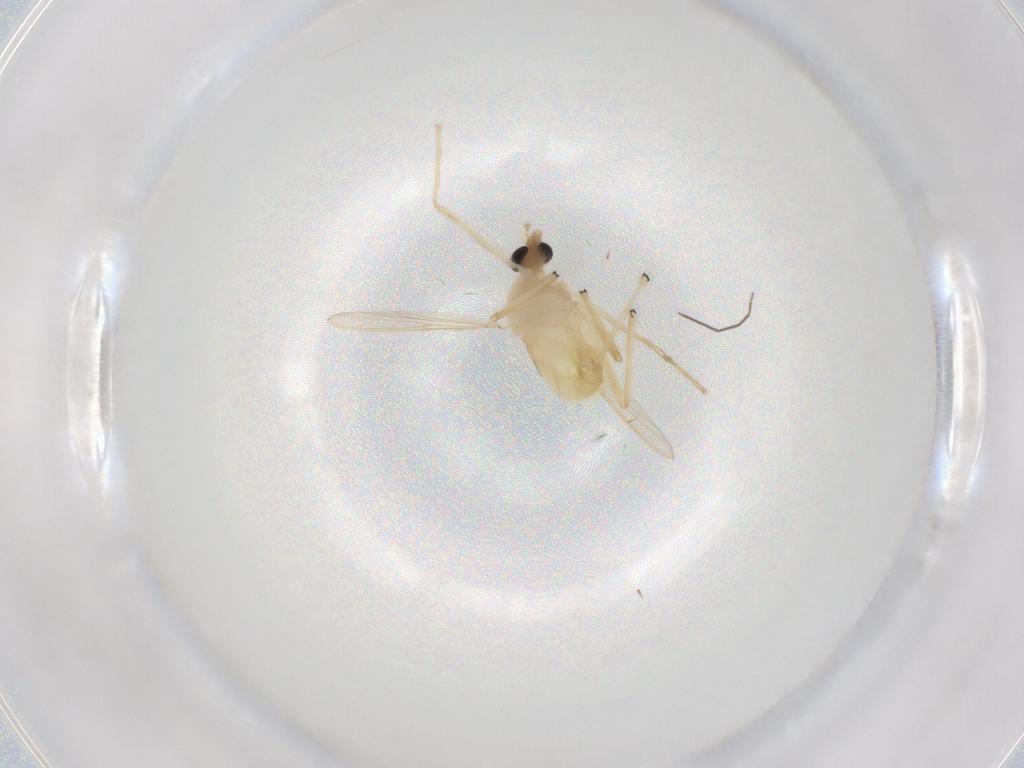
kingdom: Animalia
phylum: Arthropoda
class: Insecta
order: Diptera
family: Chironomidae
